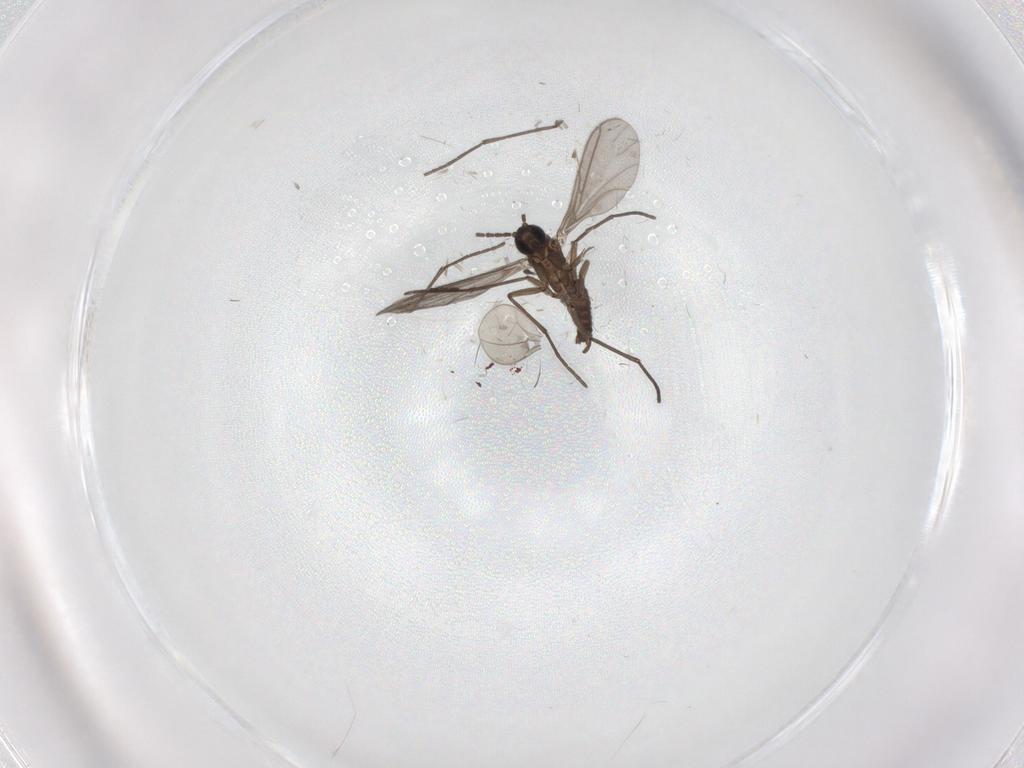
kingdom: Animalia
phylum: Arthropoda
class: Insecta
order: Diptera
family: Sciaridae
